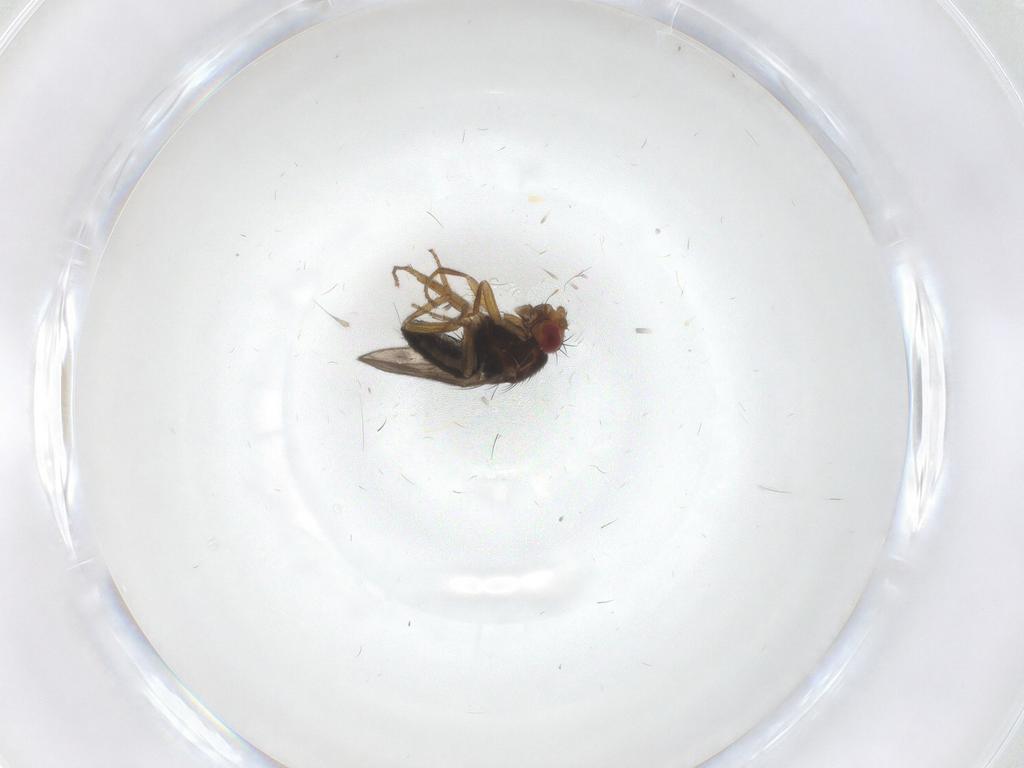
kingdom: Animalia
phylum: Arthropoda
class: Insecta
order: Diptera
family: Sphaeroceridae
